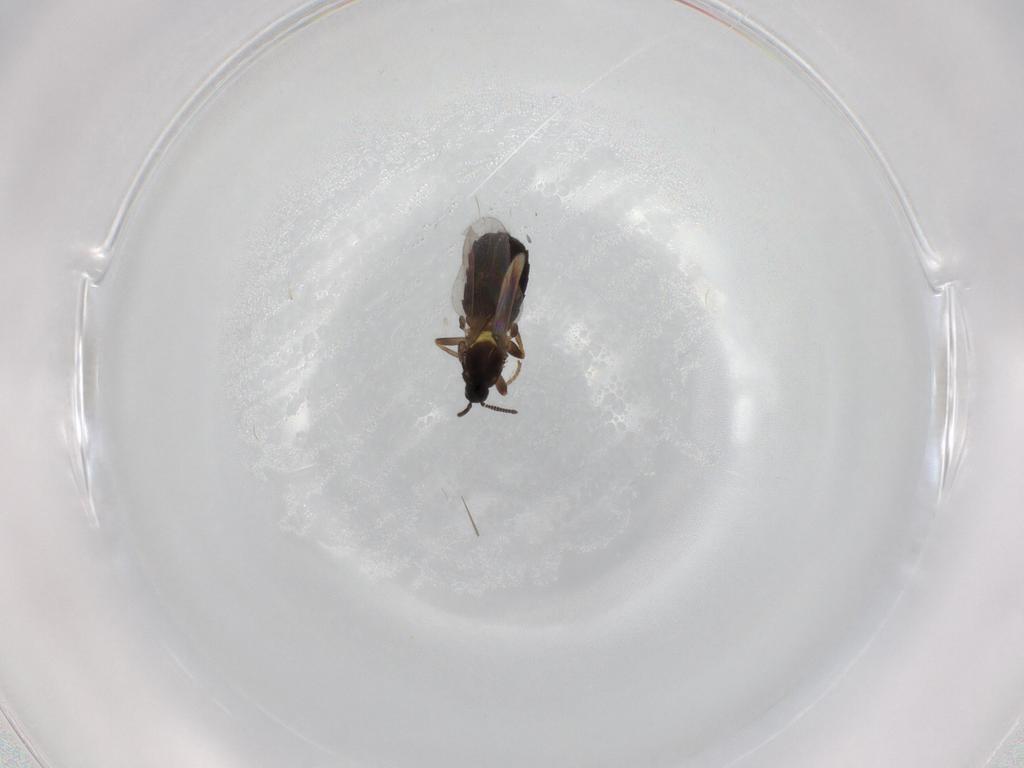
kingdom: Animalia
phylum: Arthropoda
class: Insecta
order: Diptera
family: Scatopsidae
